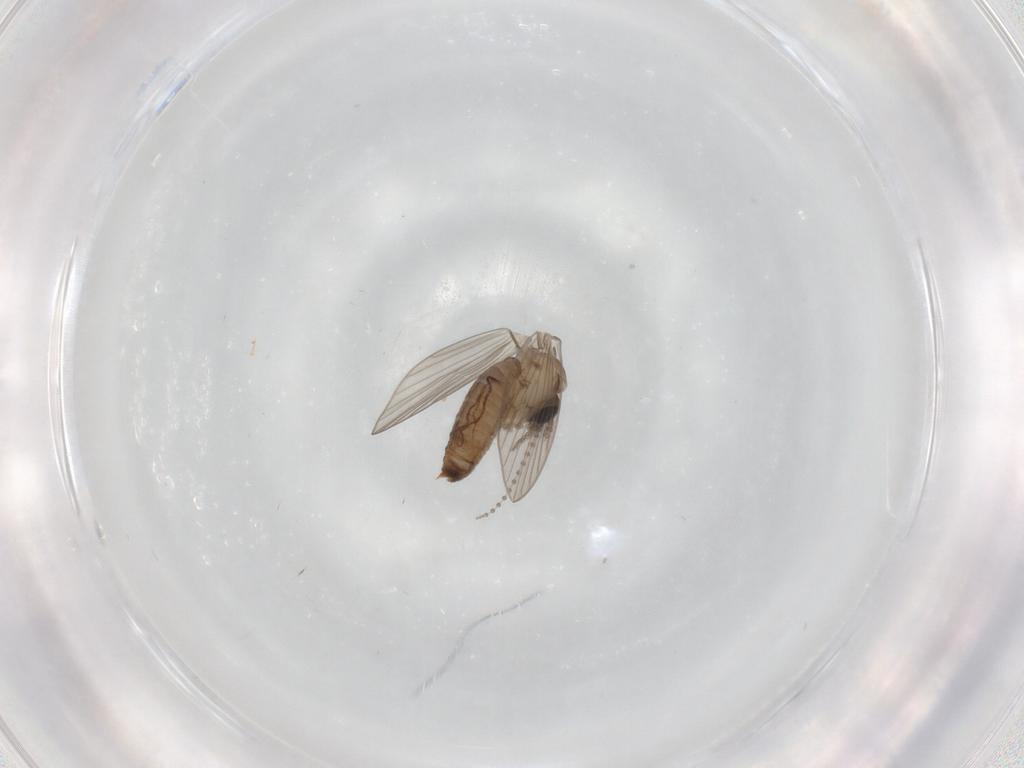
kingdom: Animalia
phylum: Arthropoda
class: Insecta
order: Diptera
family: Psychodidae
